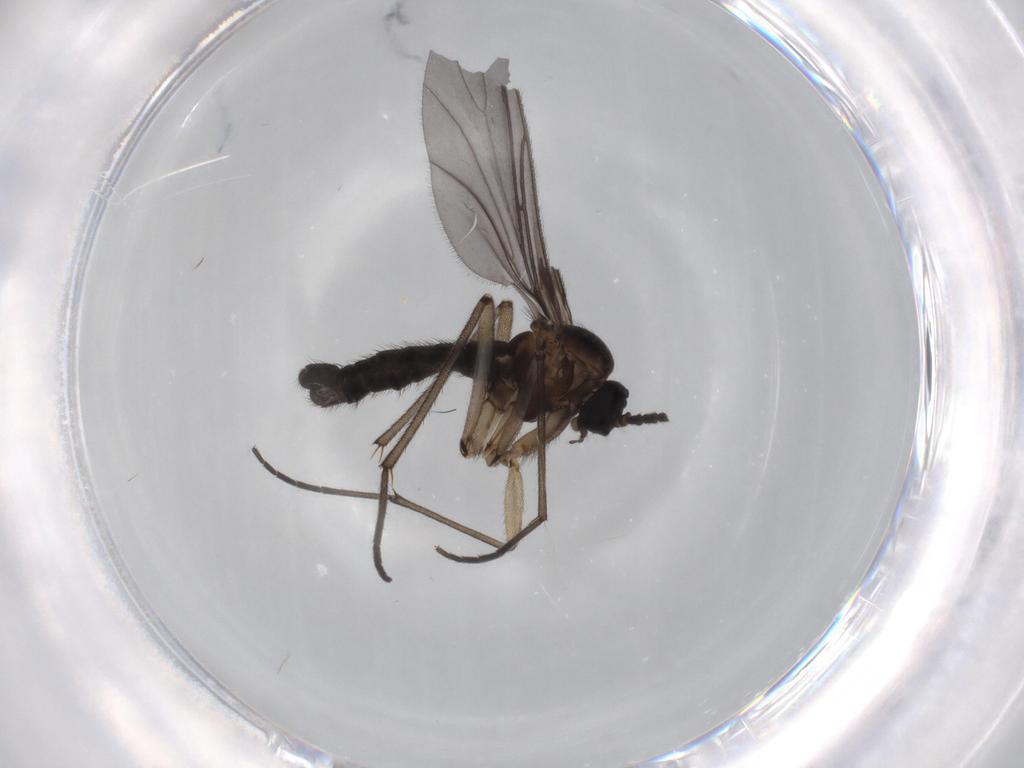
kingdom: Animalia
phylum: Arthropoda
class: Insecta
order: Diptera
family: Sciaridae
